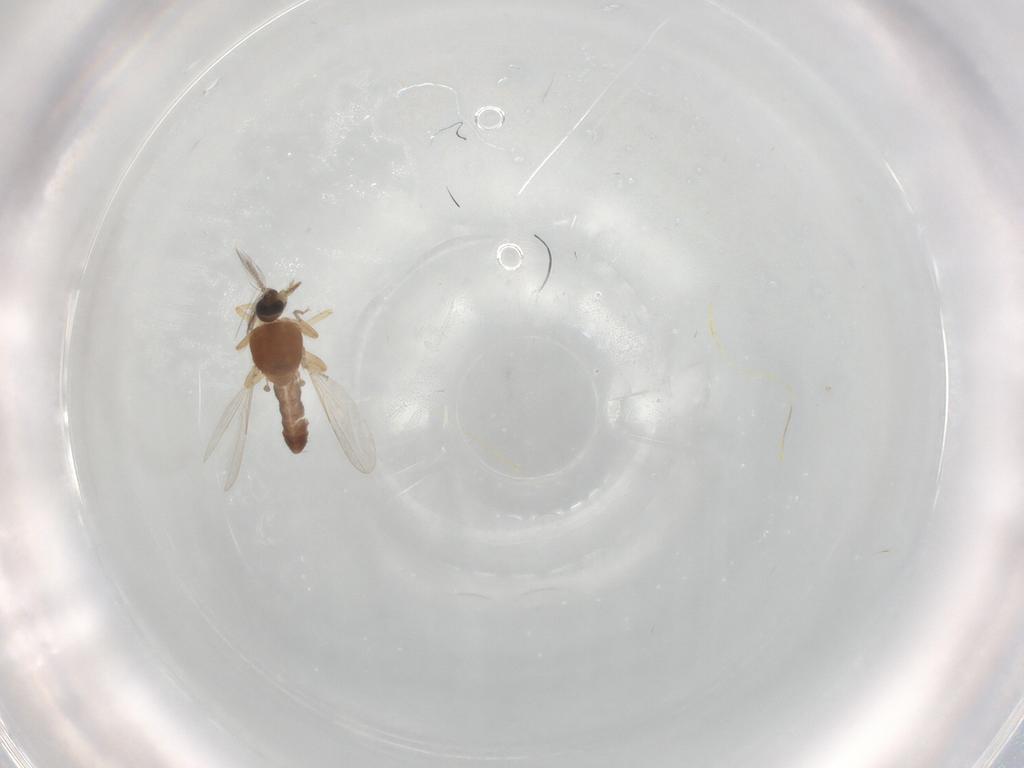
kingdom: Animalia
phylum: Arthropoda
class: Insecta
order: Diptera
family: Ceratopogonidae
